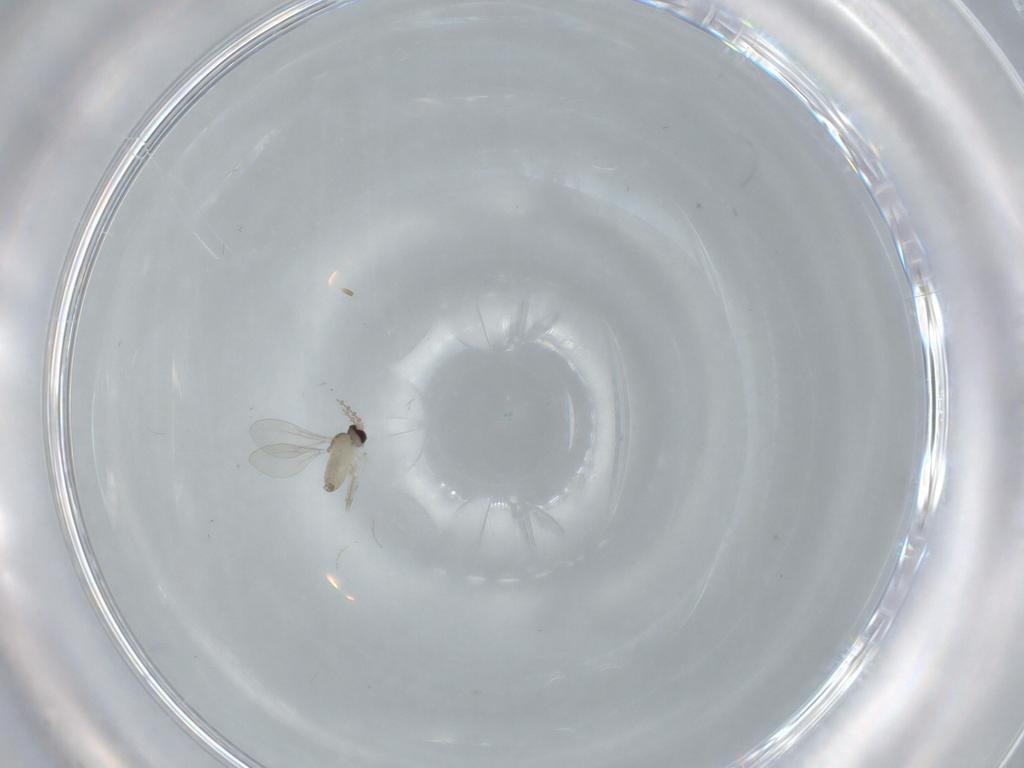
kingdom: Animalia
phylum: Arthropoda
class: Insecta
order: Diptera
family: Cecidomyiidae
